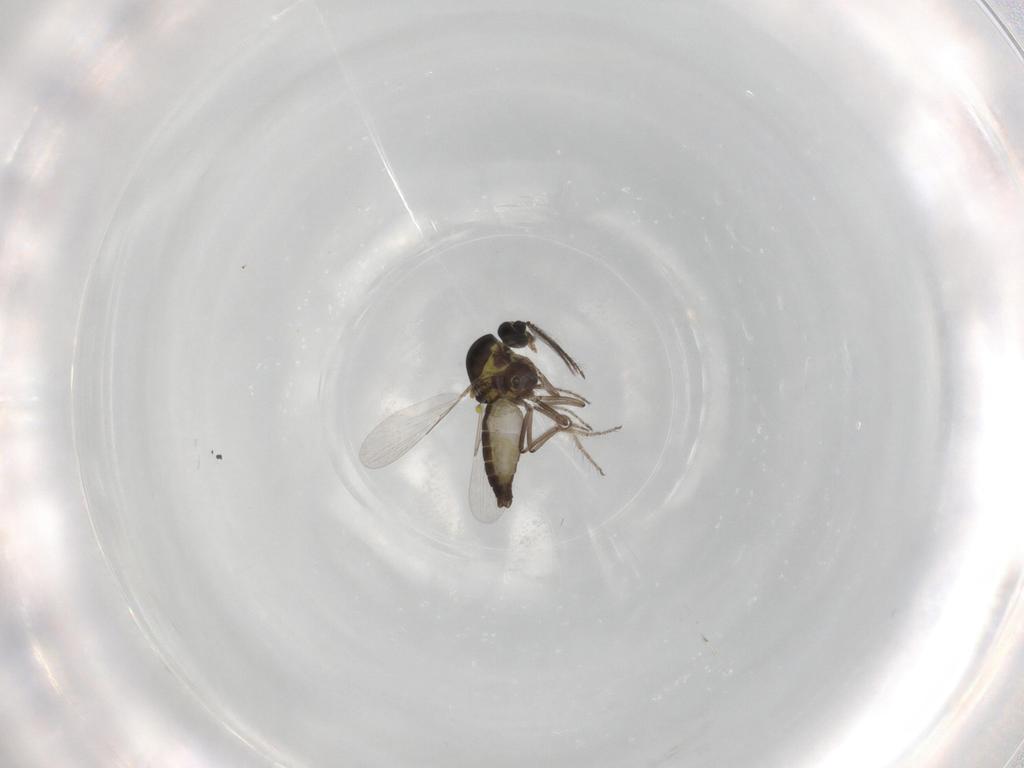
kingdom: Animalia
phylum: Arthropoda
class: Insecta
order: Diptera
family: Ceratopogonidae
